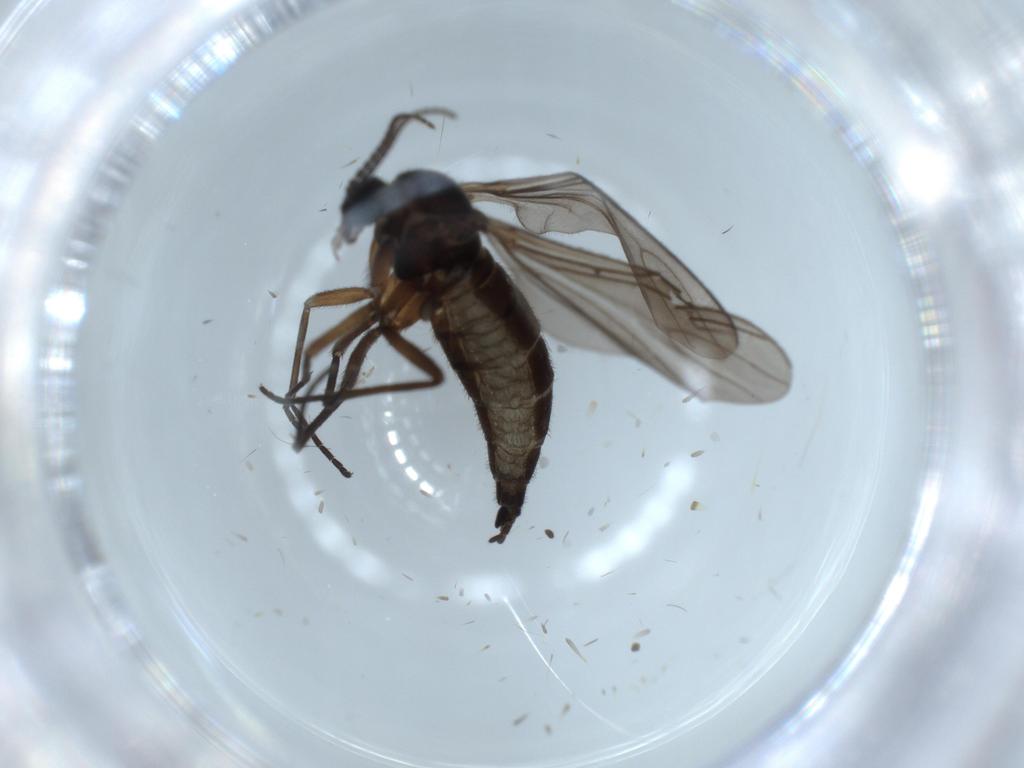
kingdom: Animalia
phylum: Arthropoda
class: Insecta
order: Diptera
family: Sciaridae
